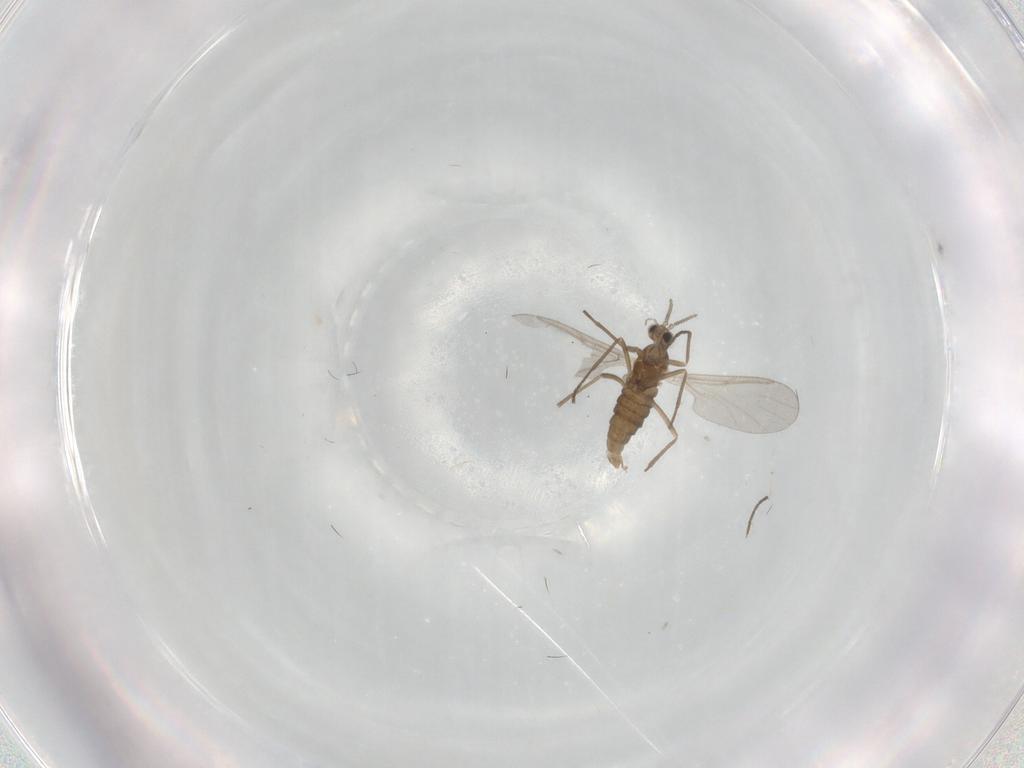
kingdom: Animalia
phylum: Arthropoda
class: Insecta
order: Diptera
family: Cecidomyiidae
